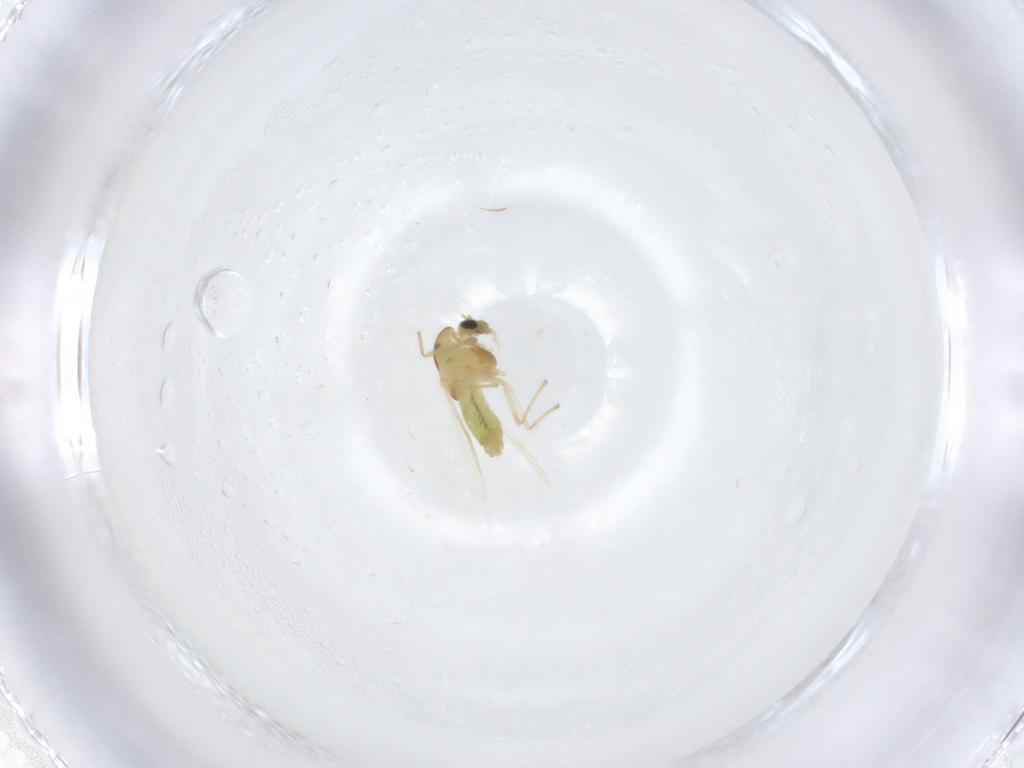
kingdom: Animalia
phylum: Arthropoda
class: Insecta
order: Diptera
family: Chironomidae
